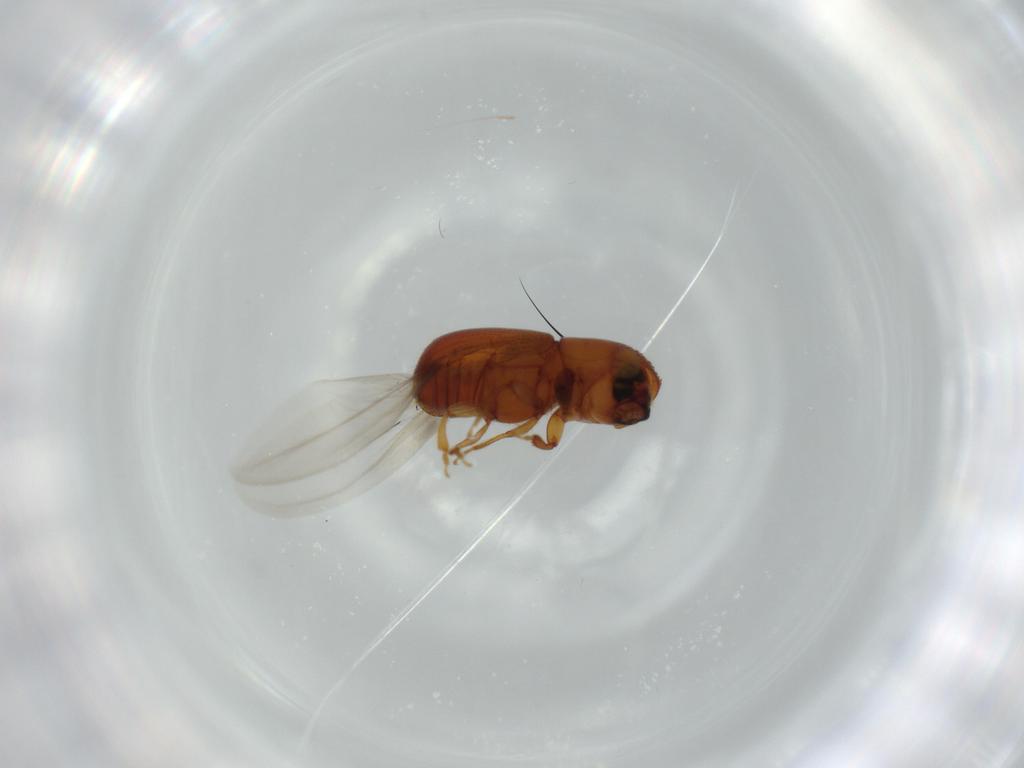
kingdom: Animalia
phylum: Arthropoda
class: Insecta
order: Coleoptera
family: Curculionidae
